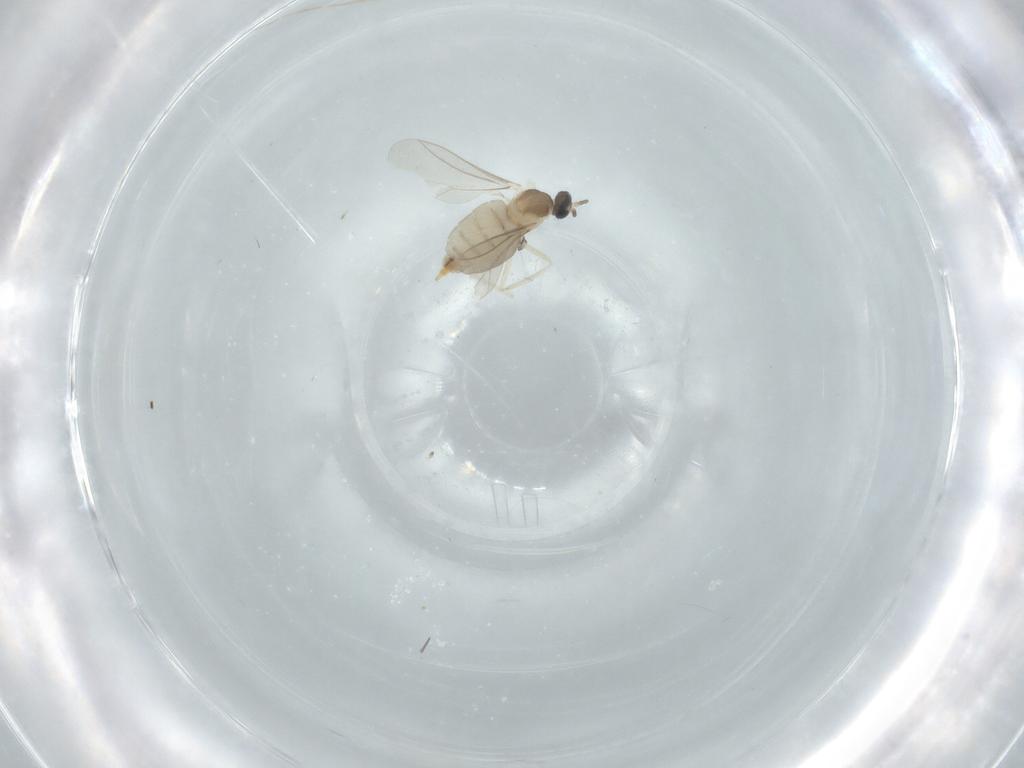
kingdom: Animalia
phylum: Arthropoda
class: Insecta
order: Diptera
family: Cecidomyiidae
